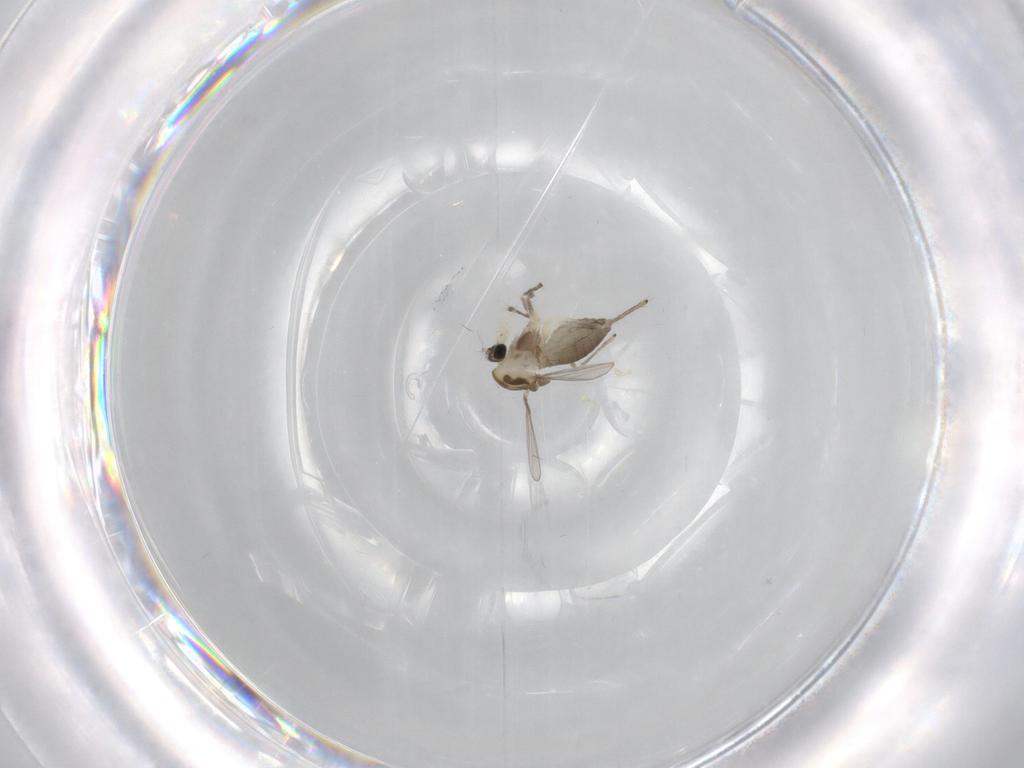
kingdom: Animalia
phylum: Arthropoda
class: Insecta
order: Diptera
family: Chironomidae
